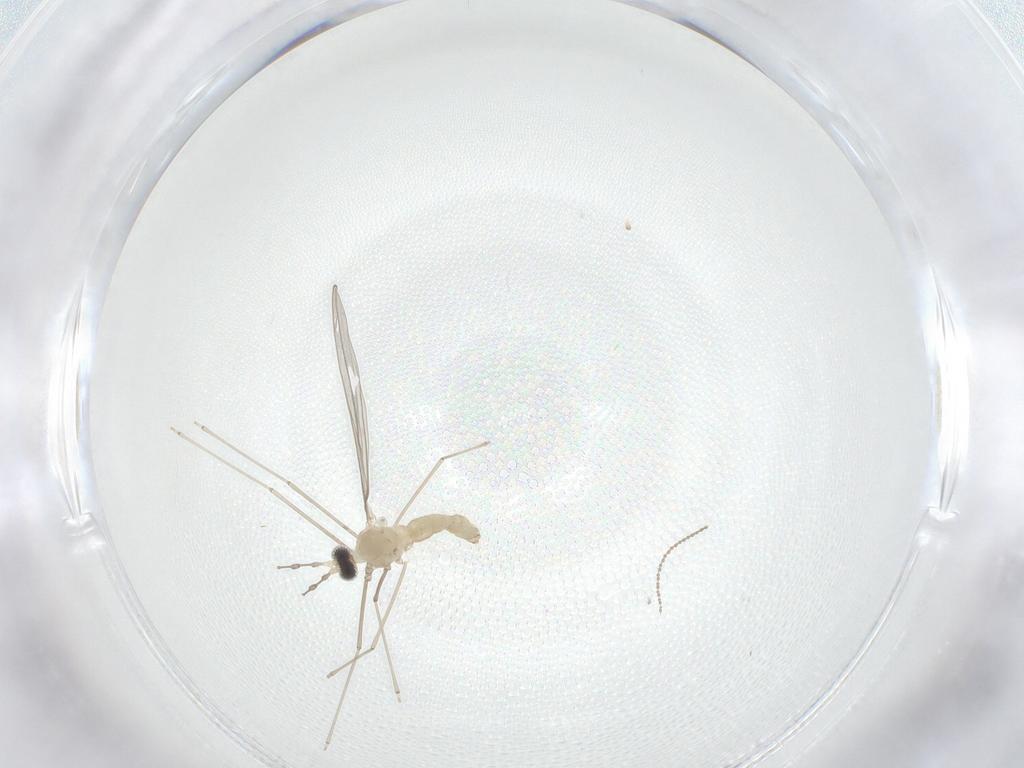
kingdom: Animalia
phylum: Arthropoda
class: Insecta
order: Diptera
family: Cecidomyiidae
